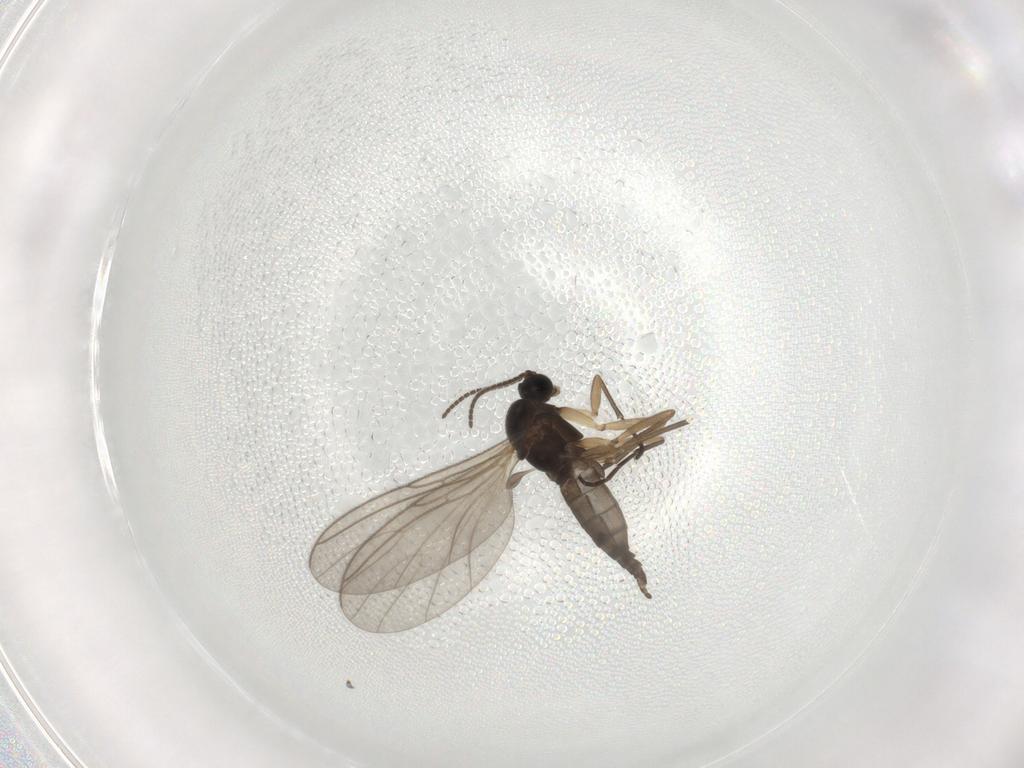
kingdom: Animalia
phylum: Arthropoda
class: Insecta
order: Diptera
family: Sciaridae
